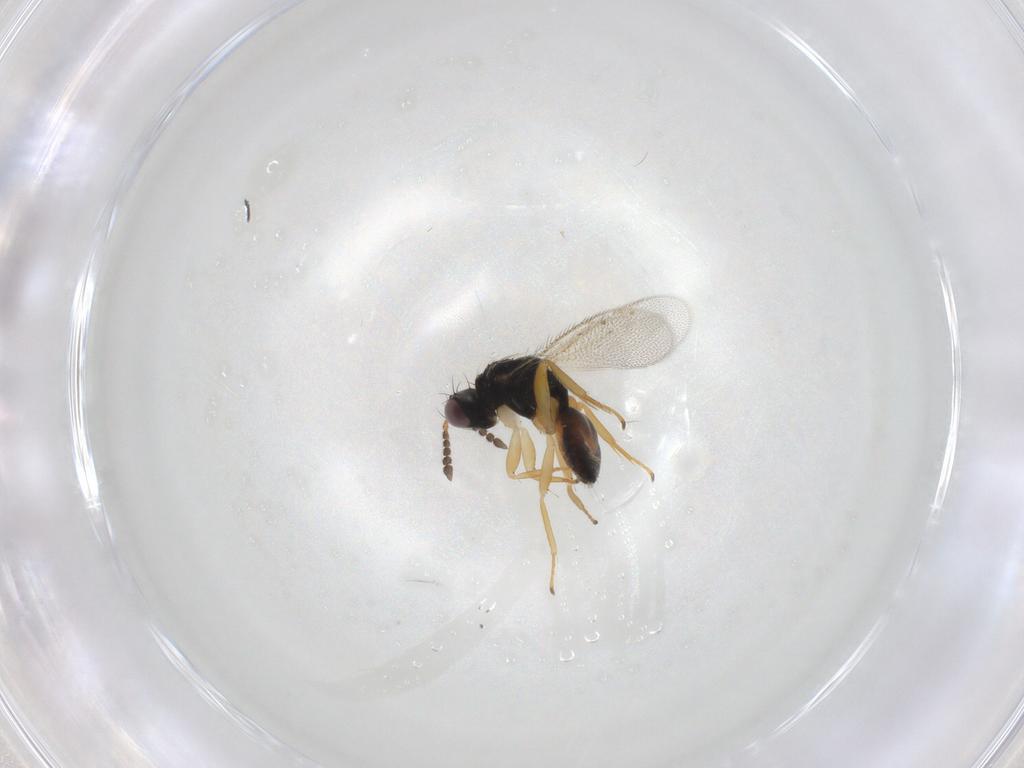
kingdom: Animalia
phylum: Arthropoda
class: Insecta
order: Hymenoptera
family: Eulophidae
